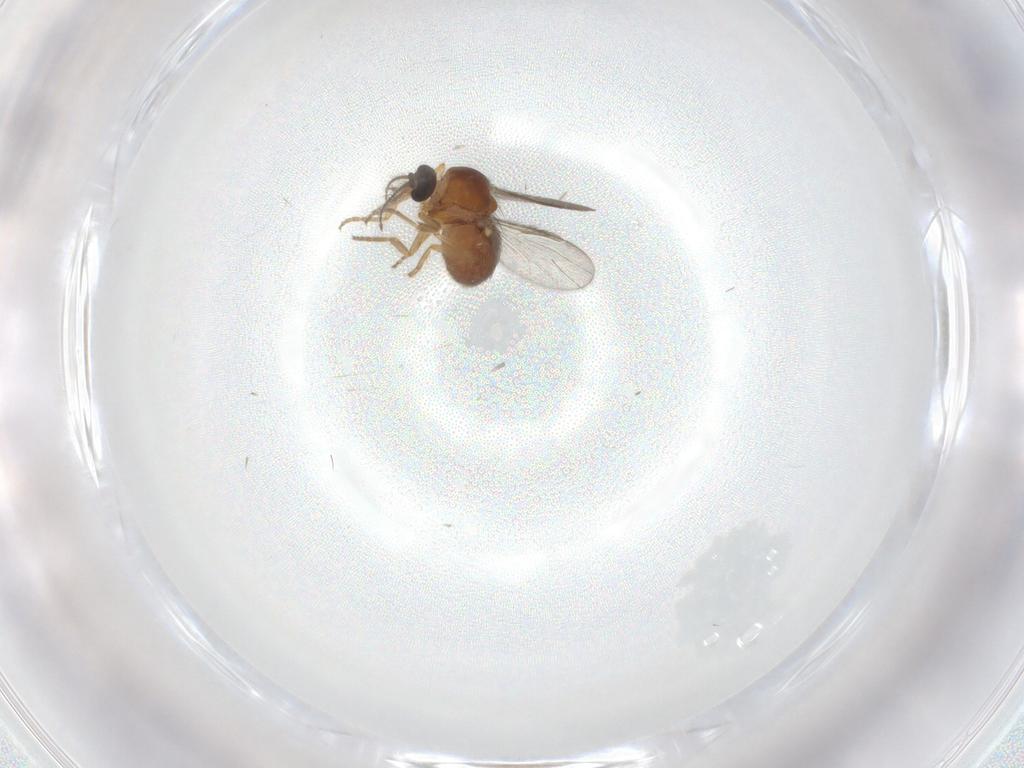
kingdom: Animalia
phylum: Arthropoda
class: Insecta
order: Diptera
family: Ceratopogonidae
